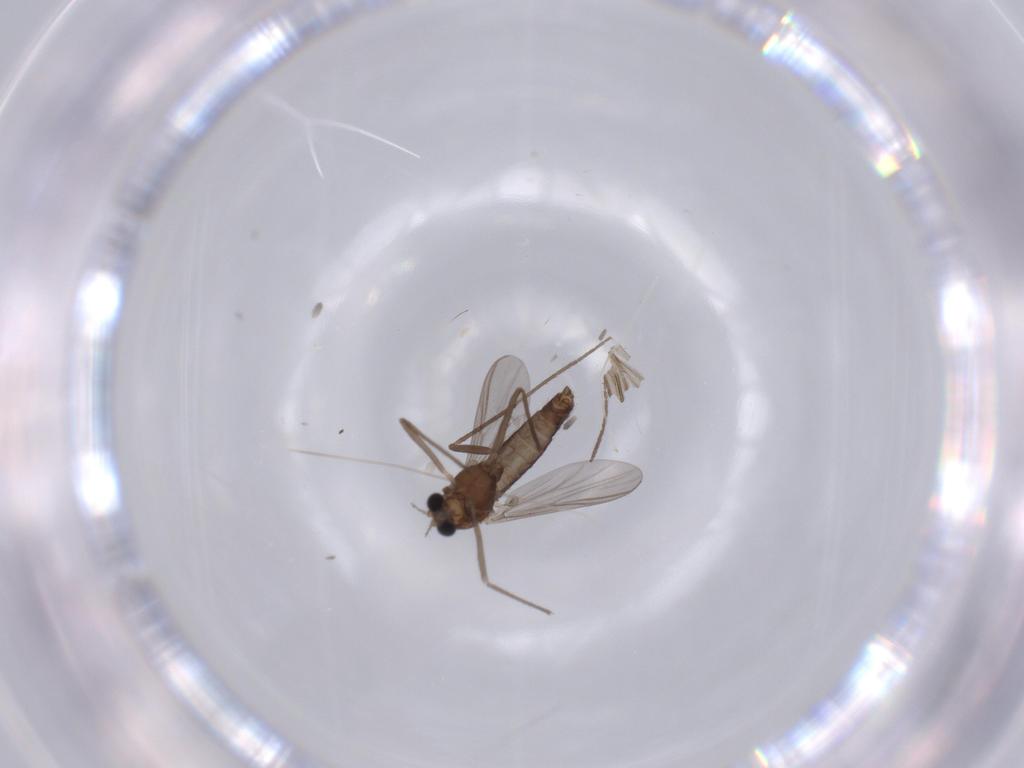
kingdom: Animalia
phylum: Arthropoda
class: Insecta
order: Diptera
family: Chironomidae
